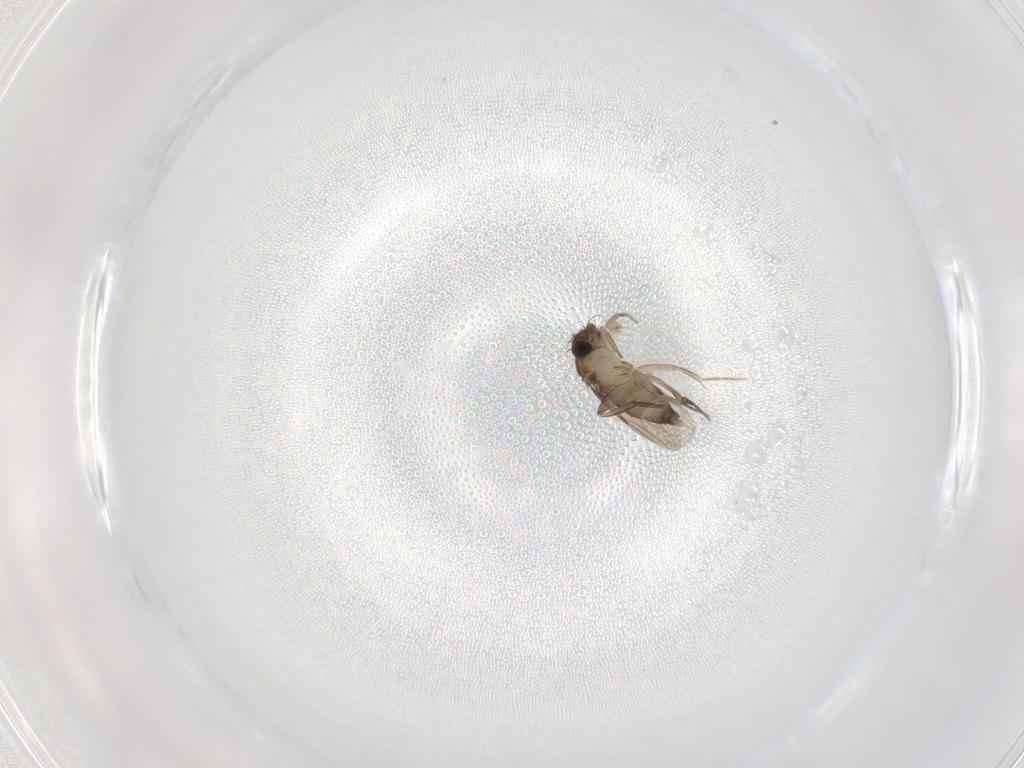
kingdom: Animalia
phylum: Arthropoda
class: Insecta
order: Diptera
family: Phoridae
